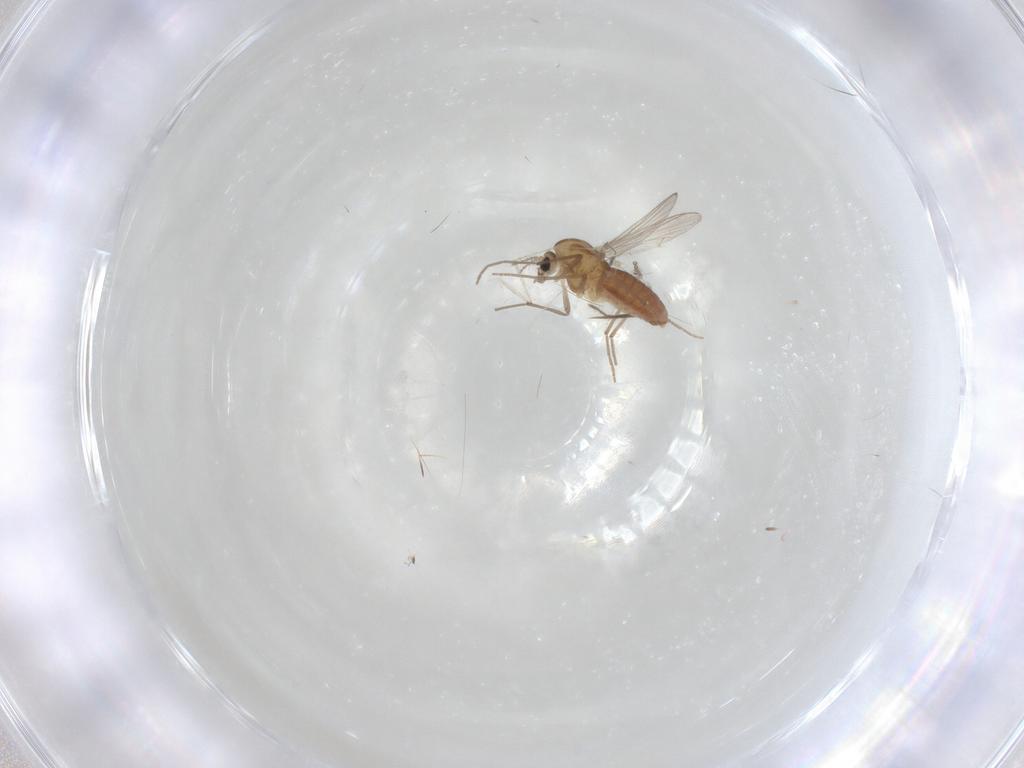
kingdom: Animalia
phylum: Arthropoda
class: Insecta
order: Diptera
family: Ceratopogonidae
